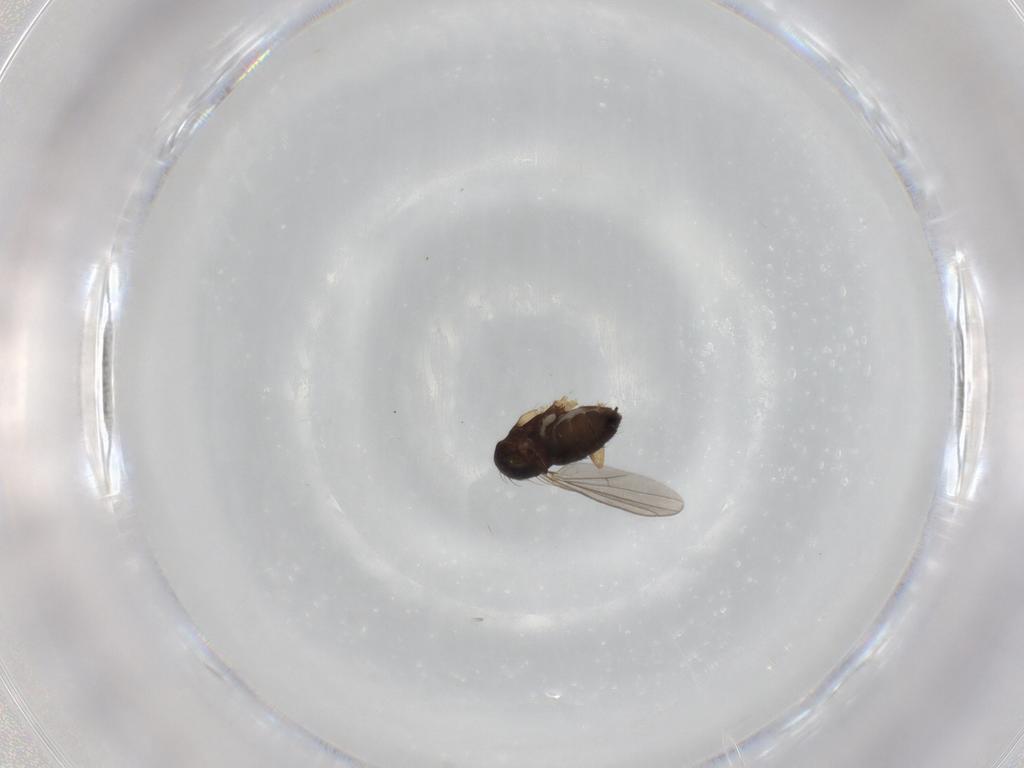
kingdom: Animalia
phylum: Arthropoda
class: Insecta
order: Diptera
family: Dolichopodidae
